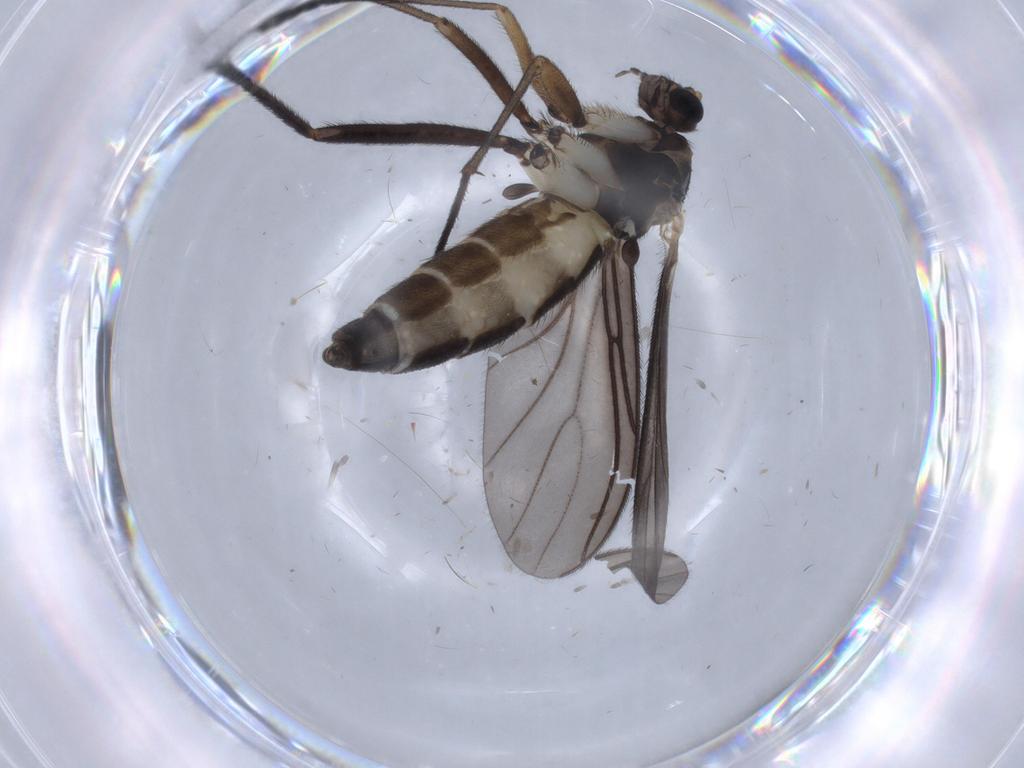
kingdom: Animalia
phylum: Arthropoda
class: Insecta
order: Diptera
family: Sciaridae
